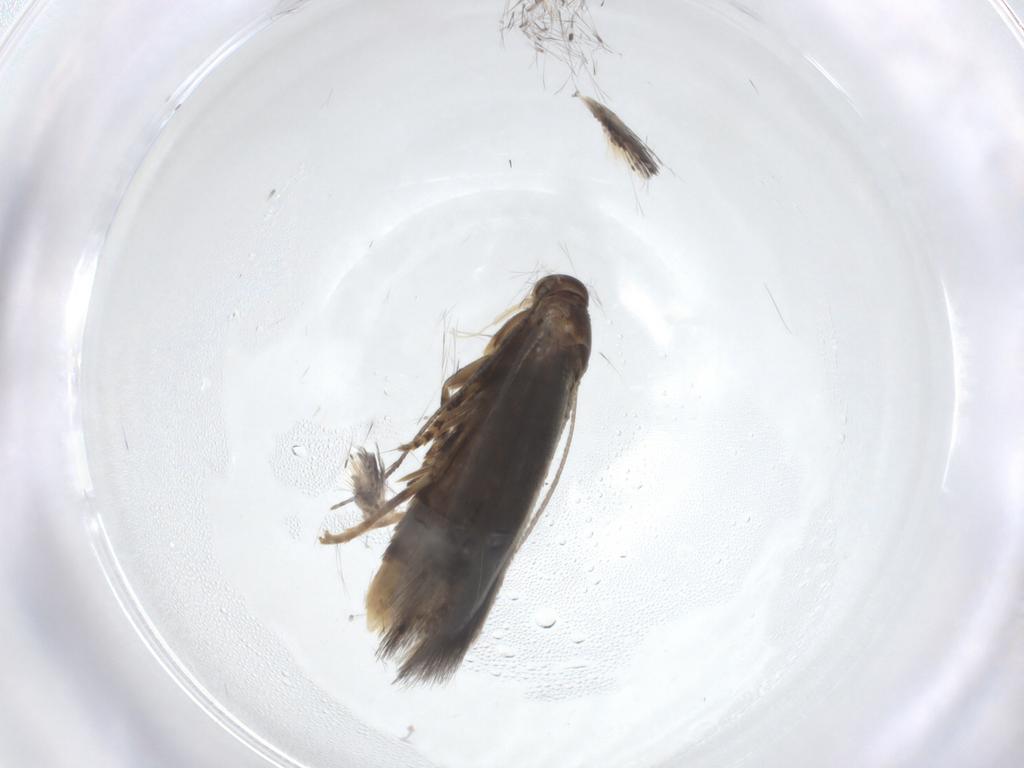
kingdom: Animalia
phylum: Arthropoda
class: Insecta
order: Lepidoptera
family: Elachistidae
